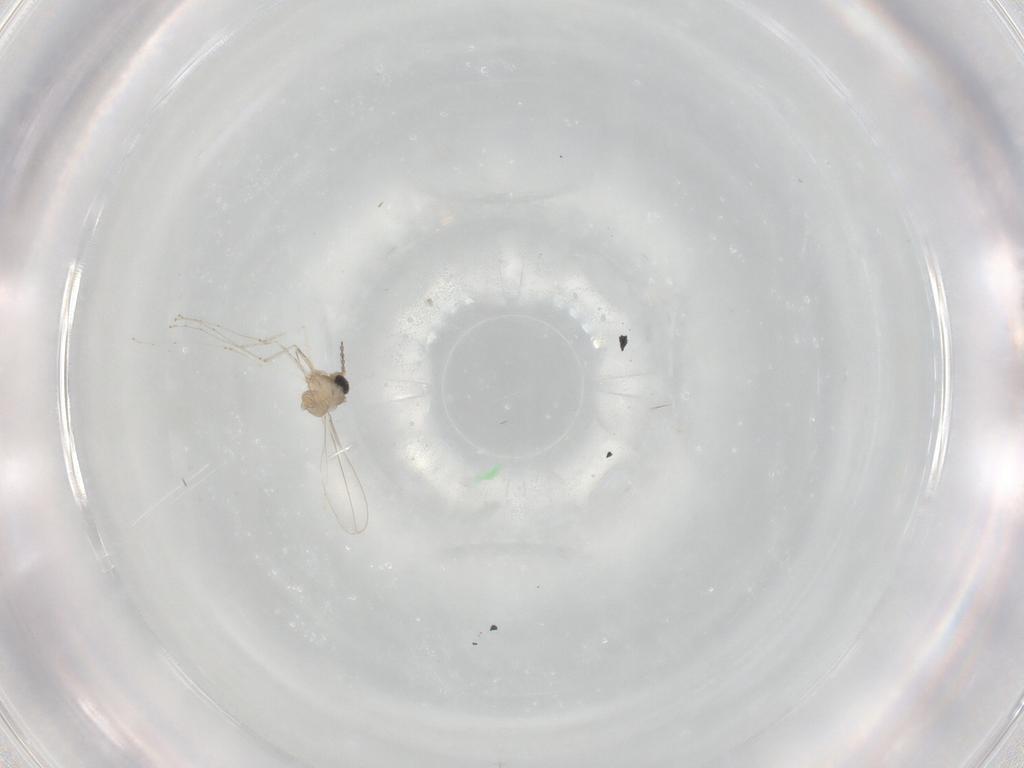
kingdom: Animalia
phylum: Arthropoda
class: Insecta
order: Diptera
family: Cecidomyiidae
